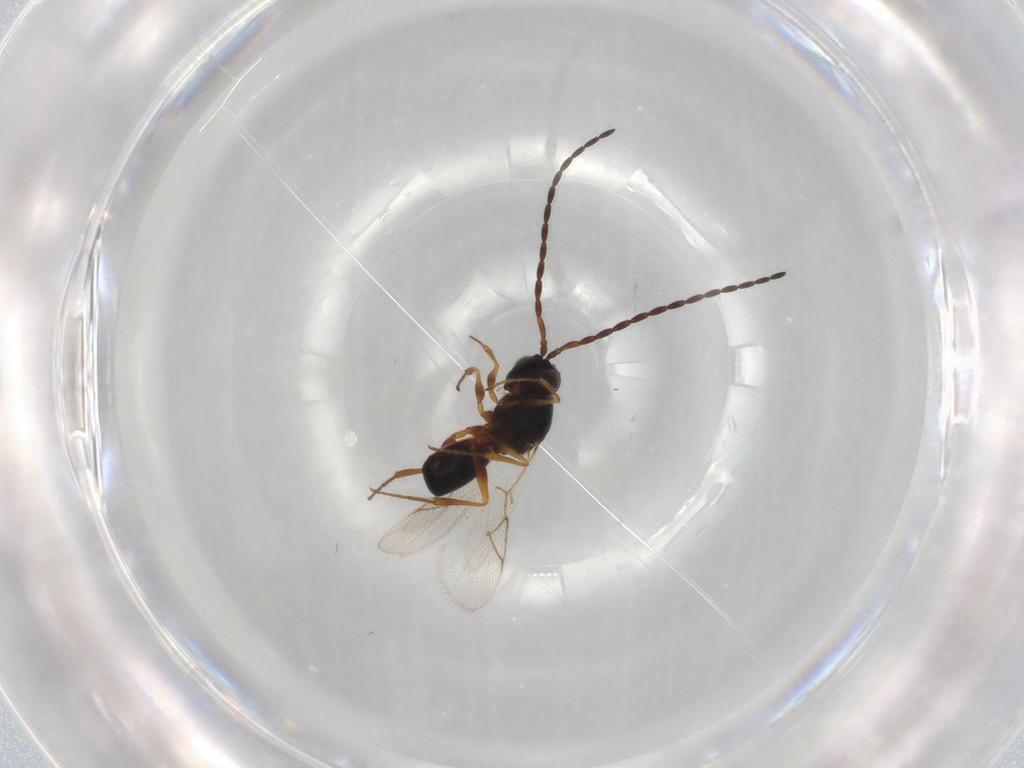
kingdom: Animalia
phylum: Arthropoda
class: Insecta
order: Hymenoptera
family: Figitidae
